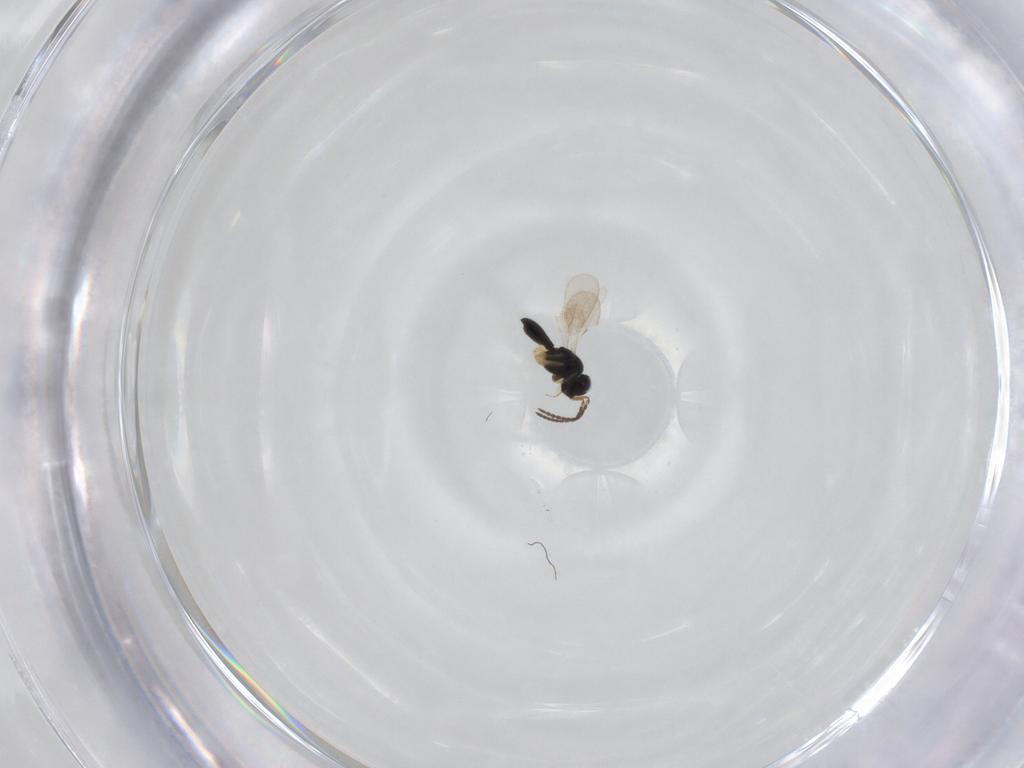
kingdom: Animalia
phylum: Arthropoda
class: Insecta
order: Hymenoptera
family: Scelionidae
